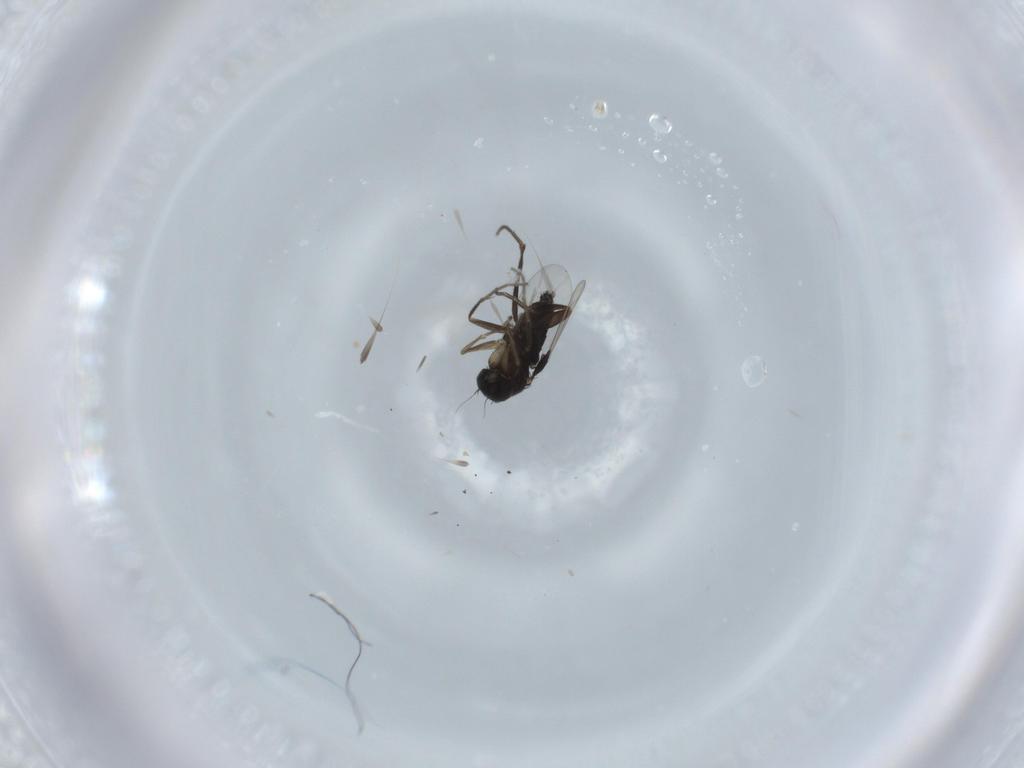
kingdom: Animalia
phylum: Arthropoda
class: Insecta
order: Diptera
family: Phoridae
